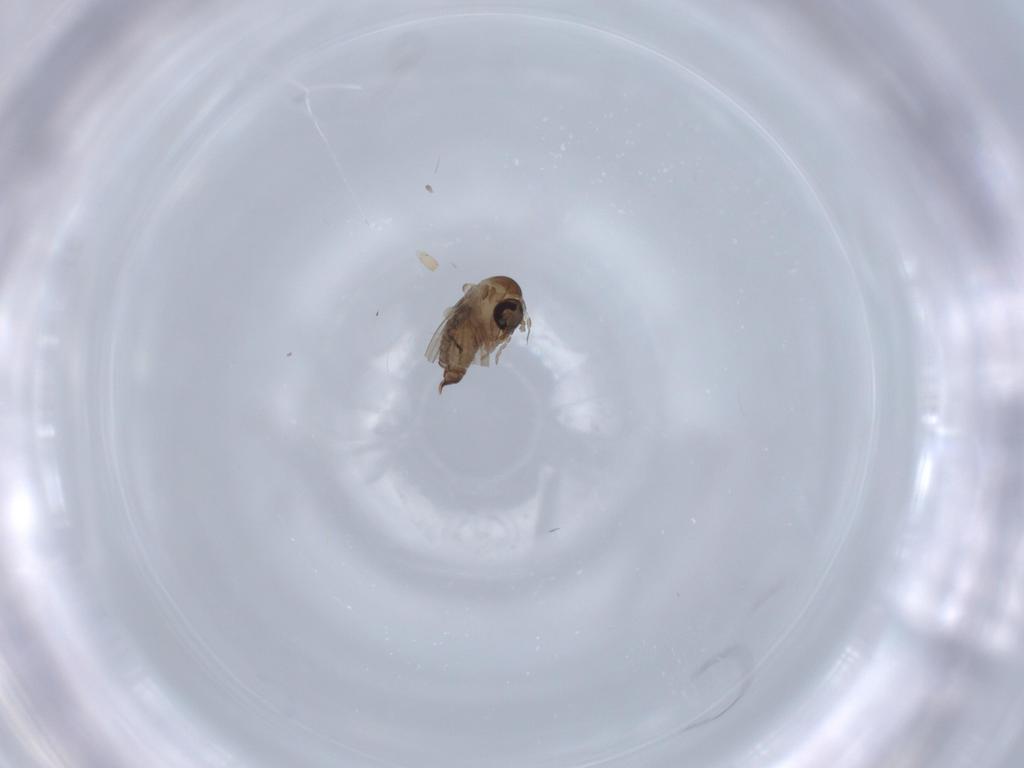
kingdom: Animalia
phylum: Arthropoda
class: Insecta
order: Diptera
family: Psychodidae
